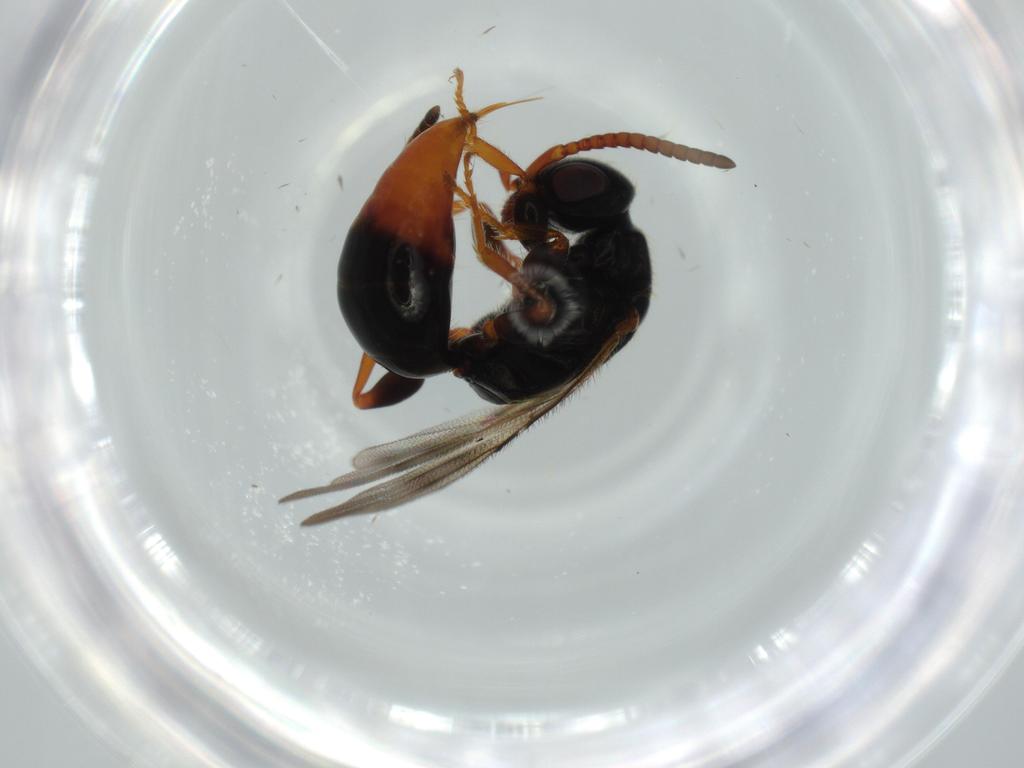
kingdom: Animalia
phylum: Arthropoda
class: Insecta
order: Hymenoptera
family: Bethylidae
